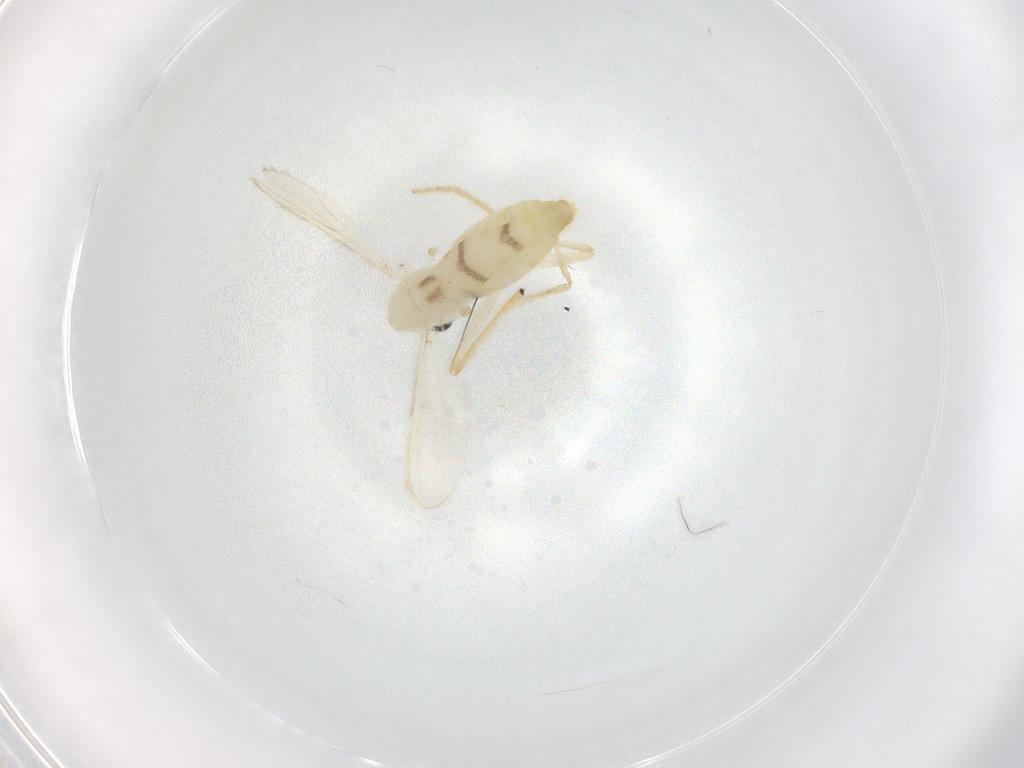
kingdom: Animalia
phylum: Arthropoda
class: Insecta
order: Diptera
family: Chironomidae
